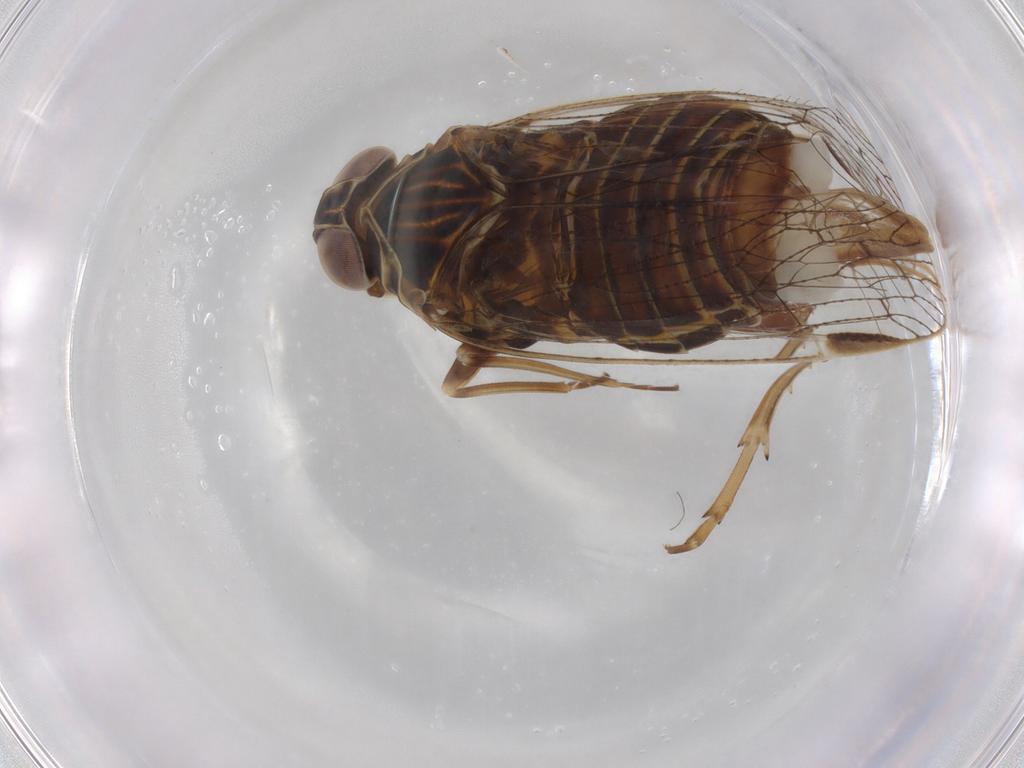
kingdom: Animalia
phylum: Arthropoda
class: Insecta
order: Hemiptera
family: Cixiidae
